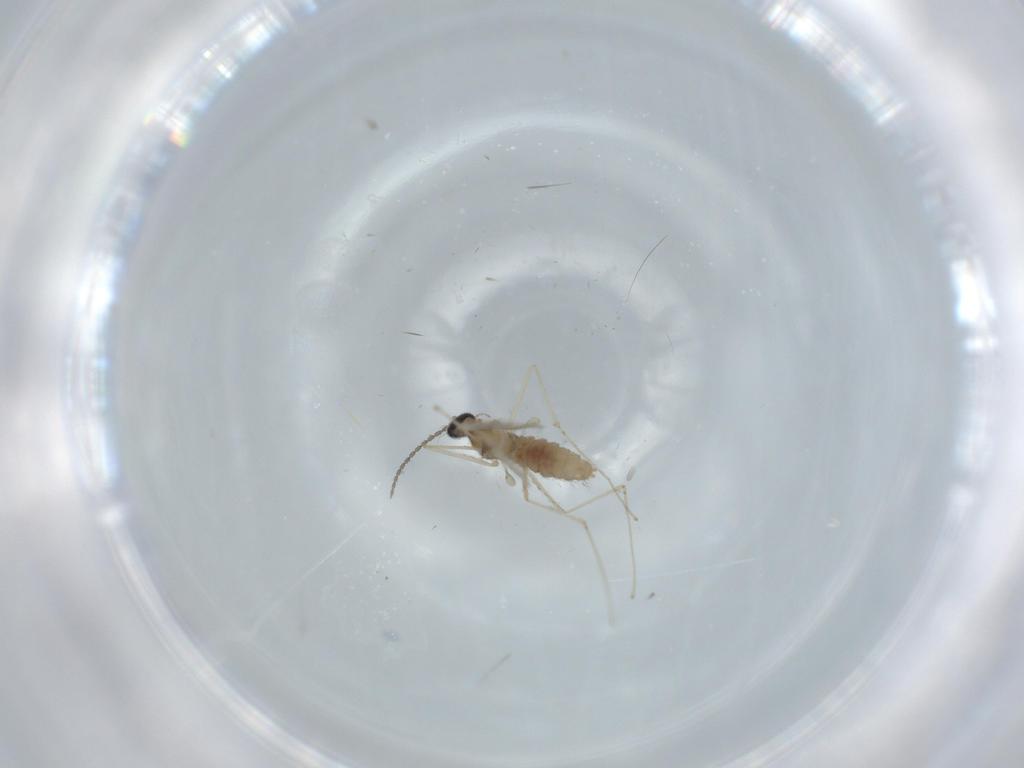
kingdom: Animalia
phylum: Arthropoda
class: Insecta
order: Diptera
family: Cecidomyiidae
